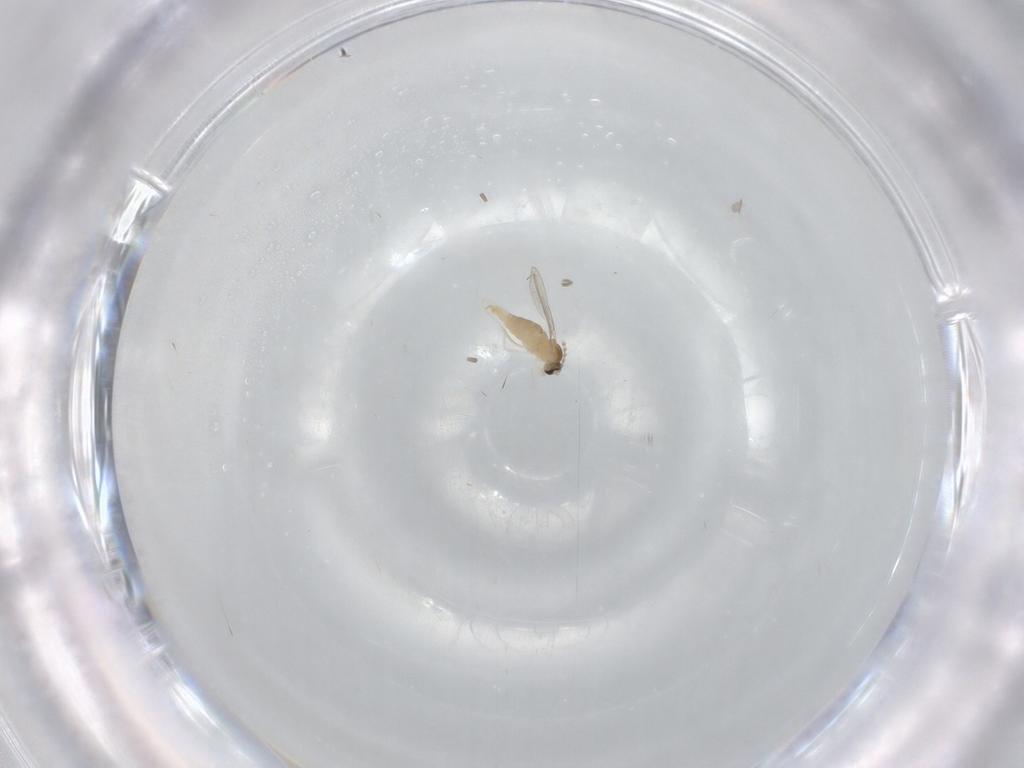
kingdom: Animalia
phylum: Arthropoda
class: Insecta
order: Diptera
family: Cecidomyiidae
